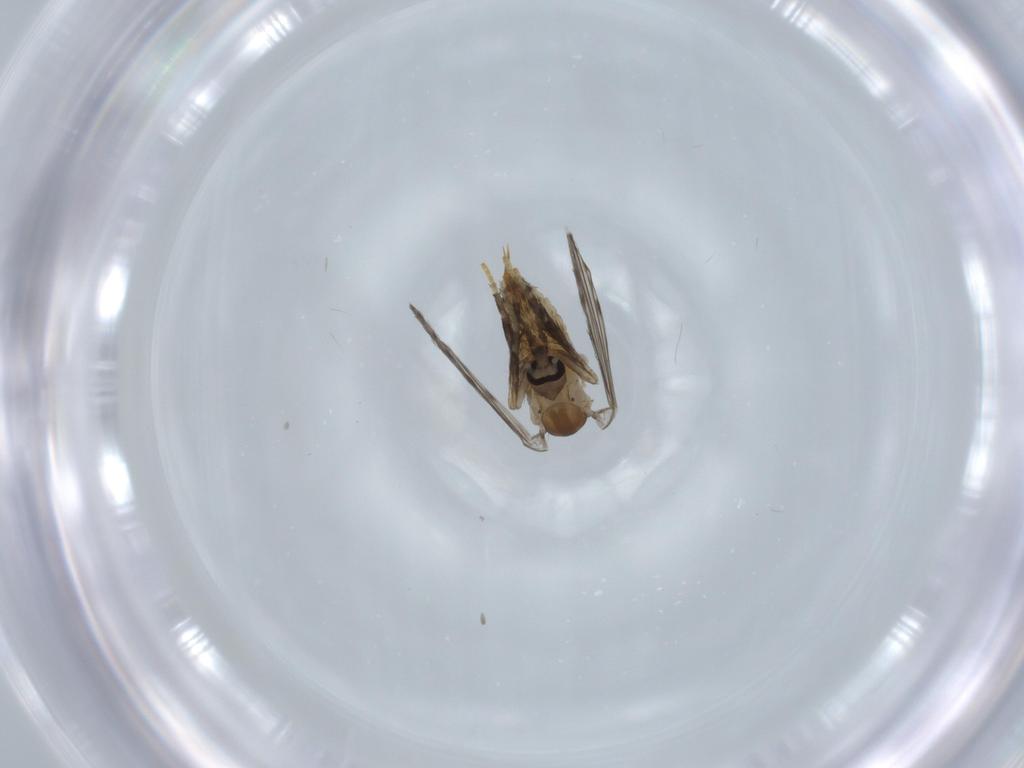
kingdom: Animalia
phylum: Arthropoda
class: Insecta
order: Diptera
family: Psychodidae
